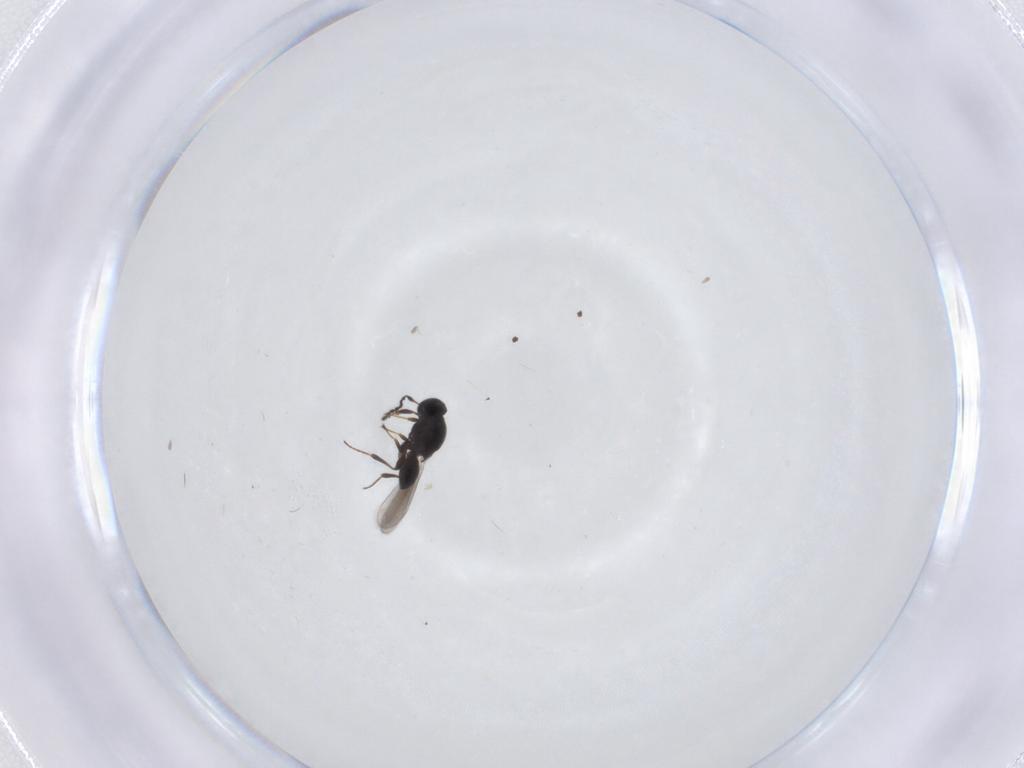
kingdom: Animalia
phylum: Arthropoda
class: Insecta
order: Hymenoptera
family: Platygastridae
